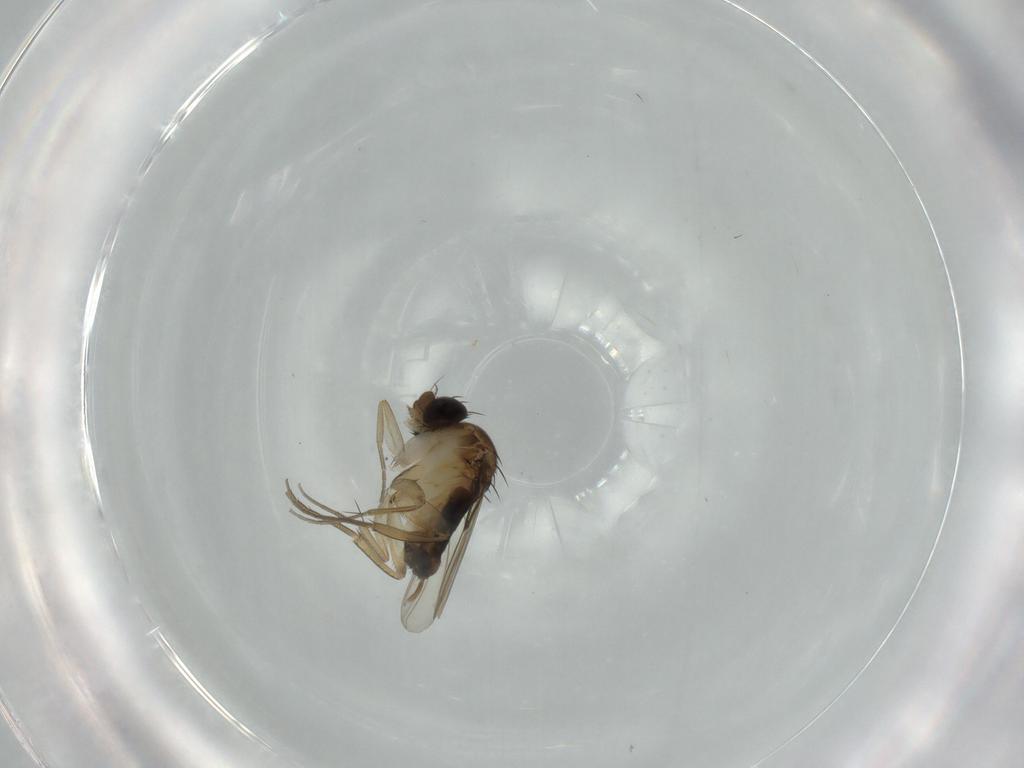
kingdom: Animalia
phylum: Arthropoda
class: Insecta
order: Diptera
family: Phoridae
